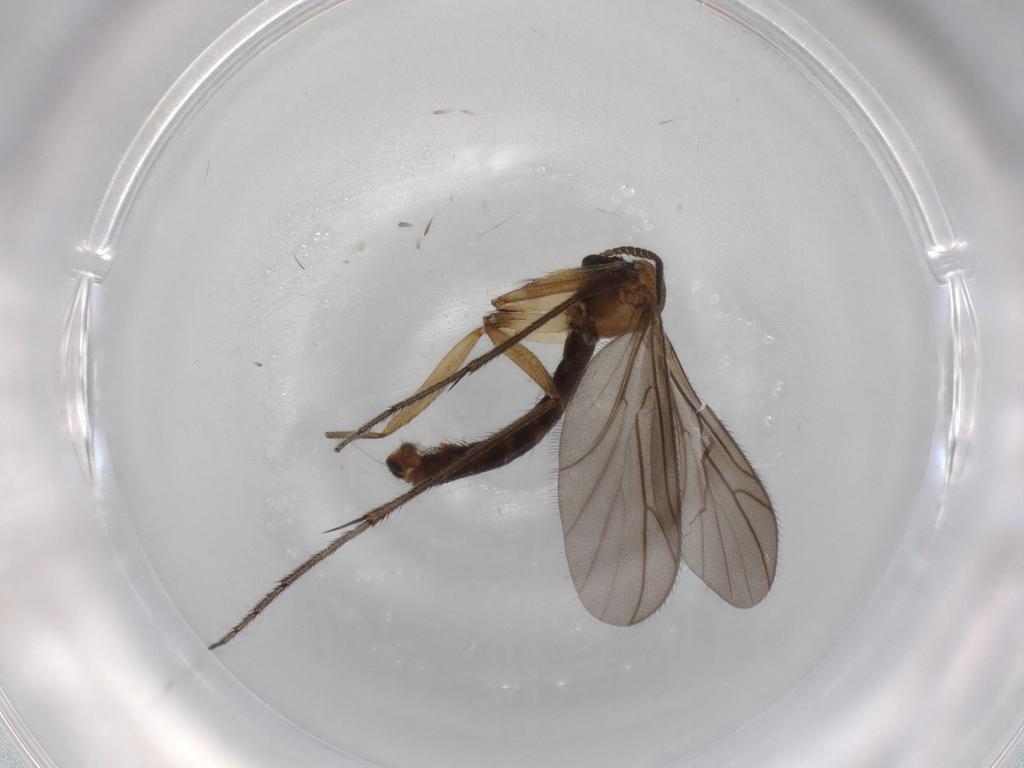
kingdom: Animalia
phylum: Arthropoda
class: Insecta
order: Diptera
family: Ditomyiidae
